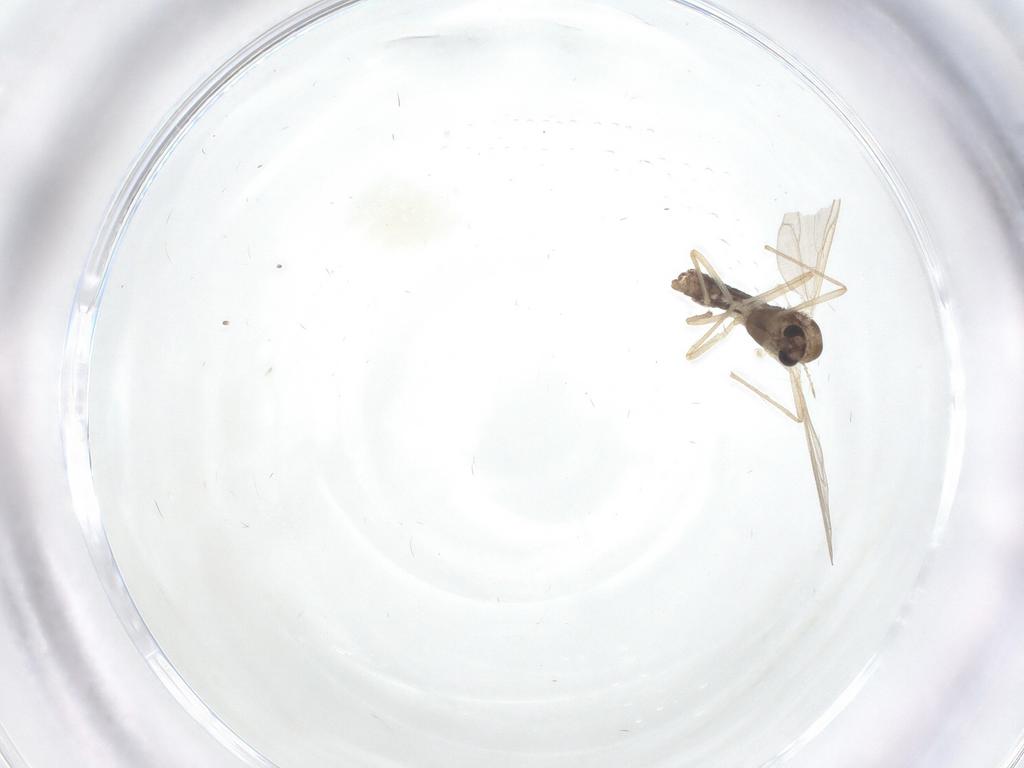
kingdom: Animalia
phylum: Arthropoda
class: Insecta
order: Diptera
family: Chironomidae
